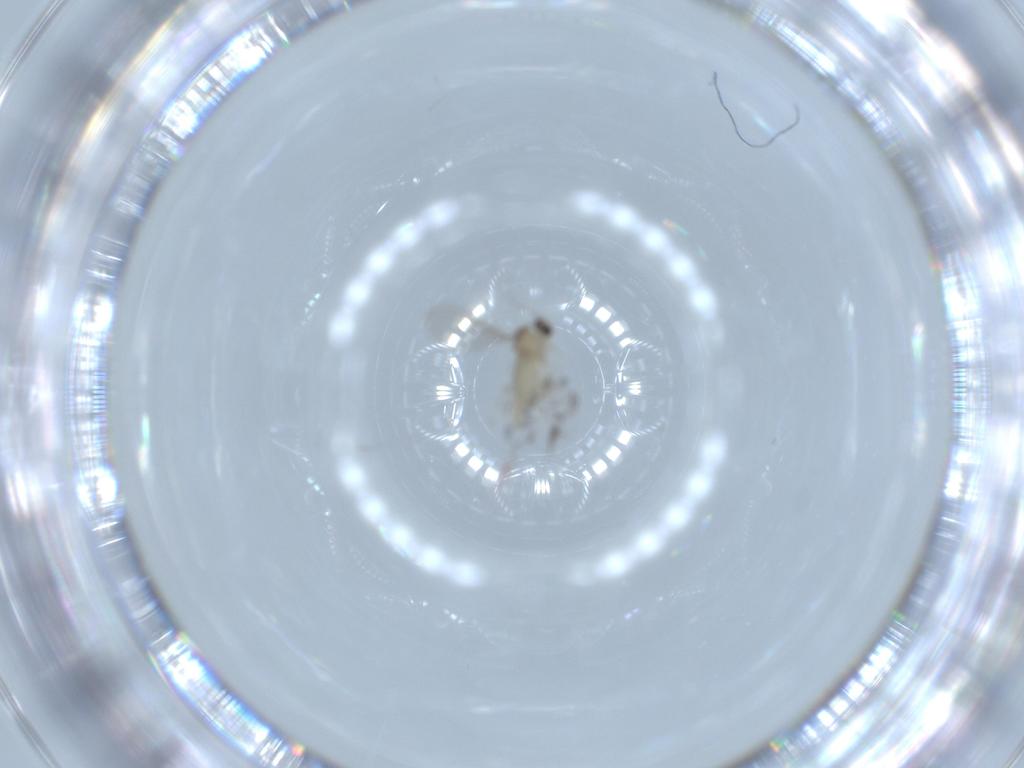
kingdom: Animalia
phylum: Arthropoda
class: Insecta
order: Diptera
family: Cecidomyiidae
